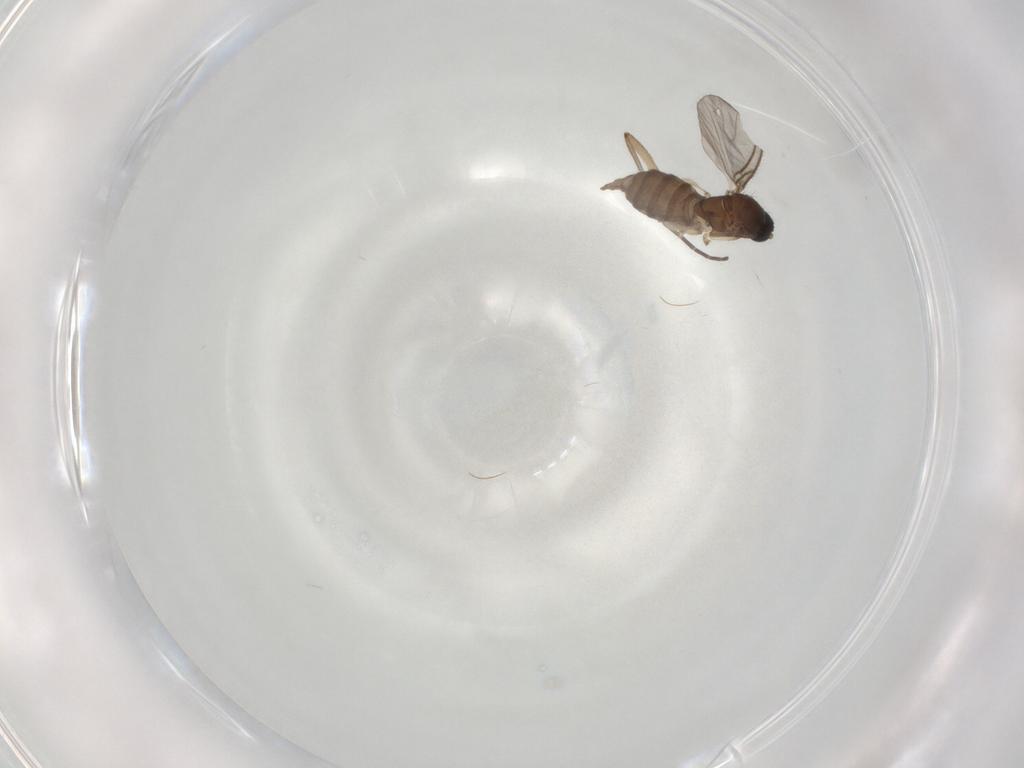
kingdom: Animalia
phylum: Arthropoda
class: Insecta
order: Diptera
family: Sciaridae
